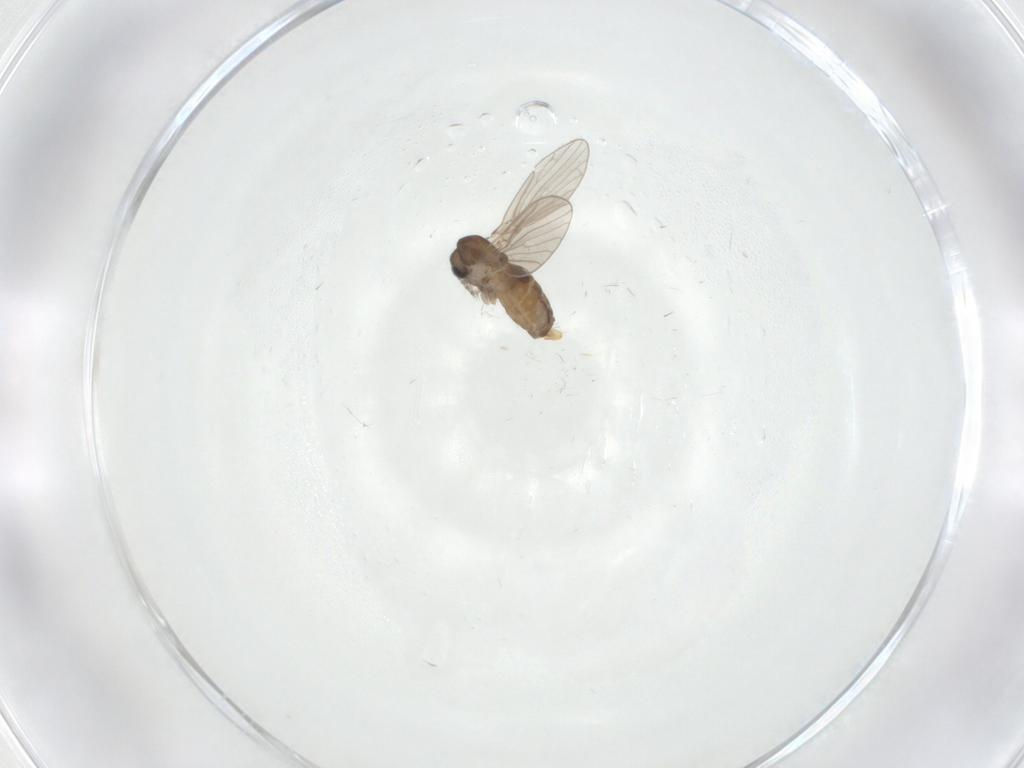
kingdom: Animalia
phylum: Arthropoda
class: Insecta
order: Diptera
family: Psychodidae
